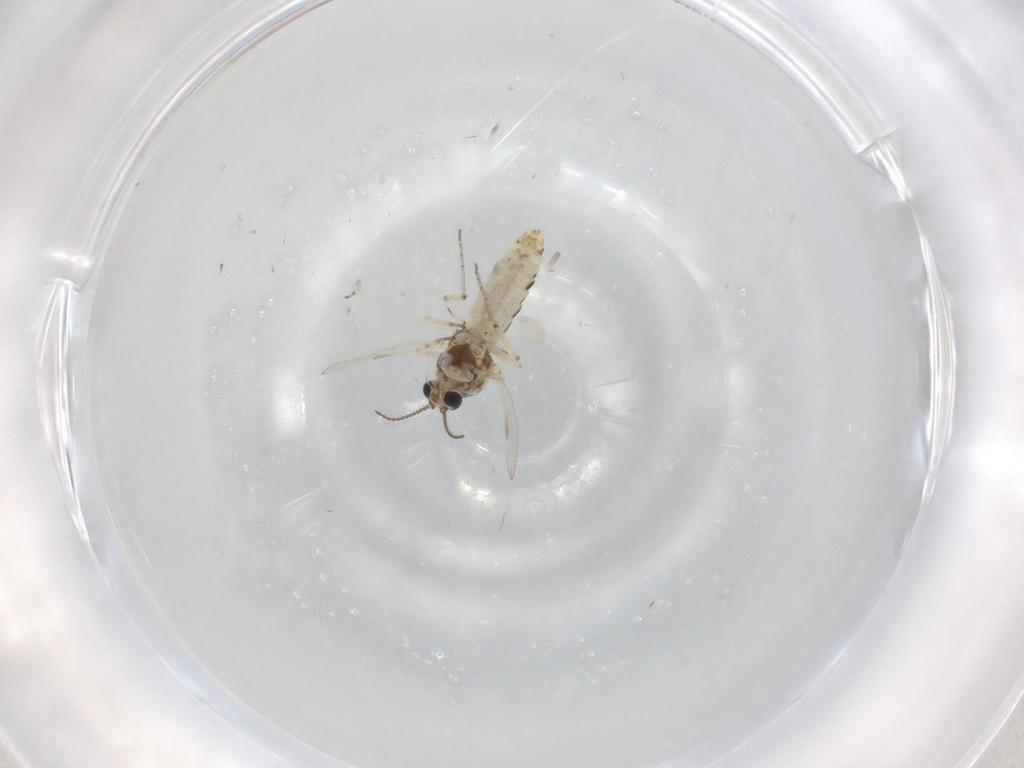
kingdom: Animalia
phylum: Arthropoda
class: Insecta
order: Diptera
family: Ceratopogonidae
